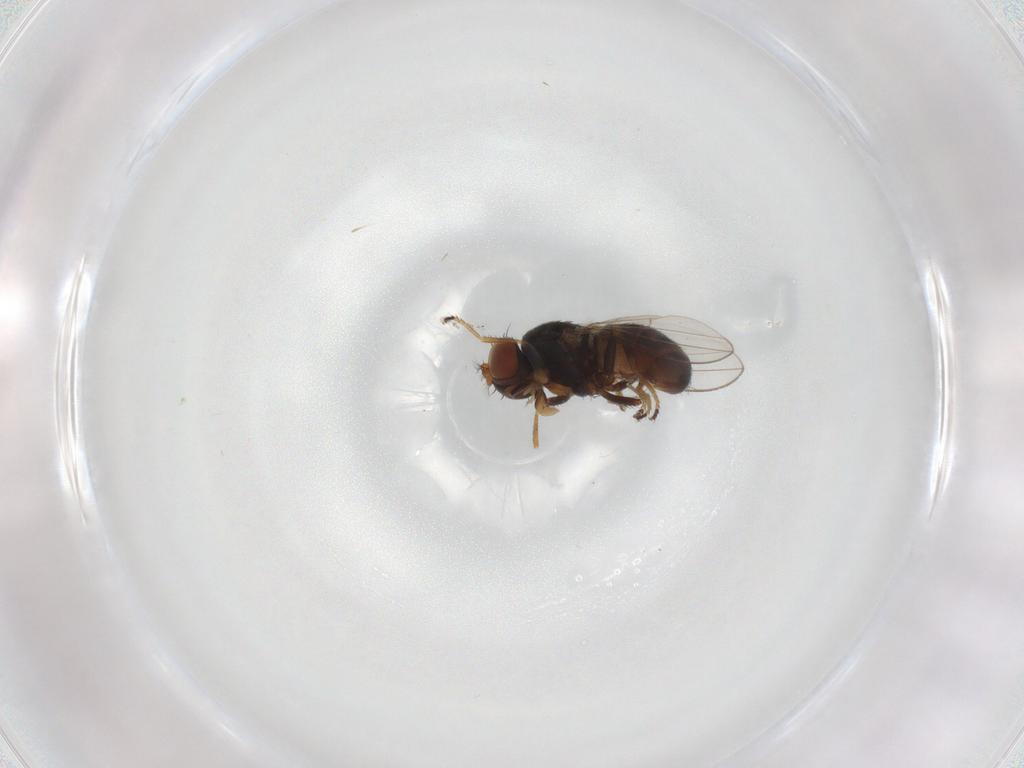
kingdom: Animalia
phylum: Arthropoda
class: Insecta
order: Diptera
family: Ephydridae
